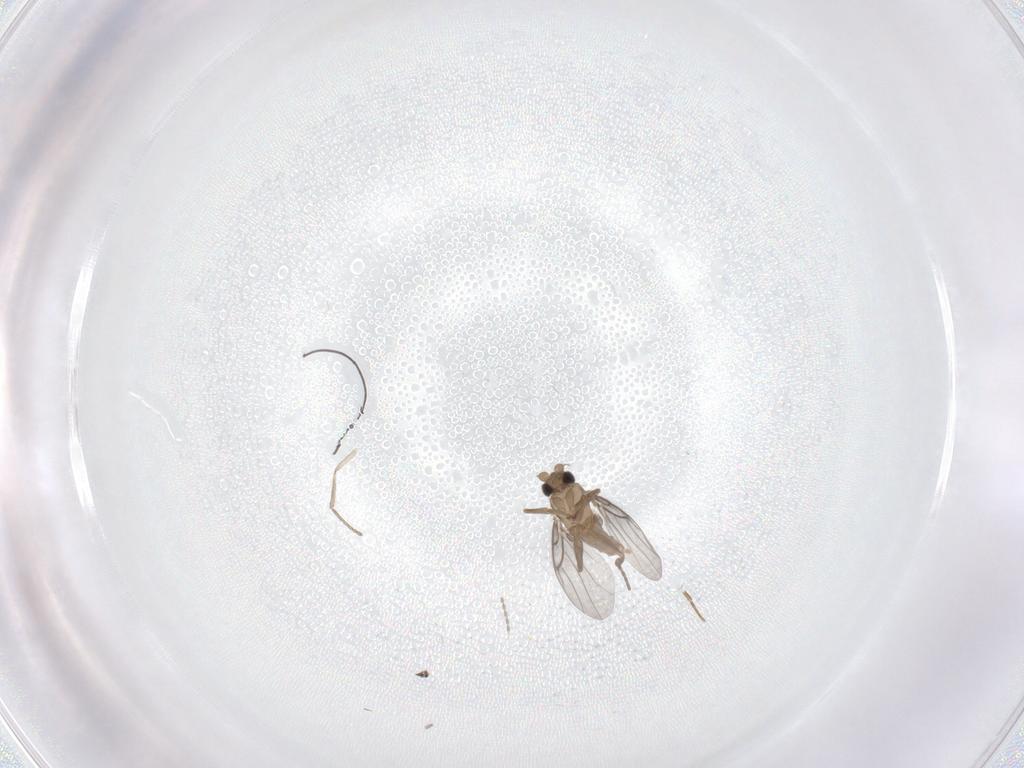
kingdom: Animalia
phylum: Arthropoda
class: Insecta
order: Diptera
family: Psychodidae
